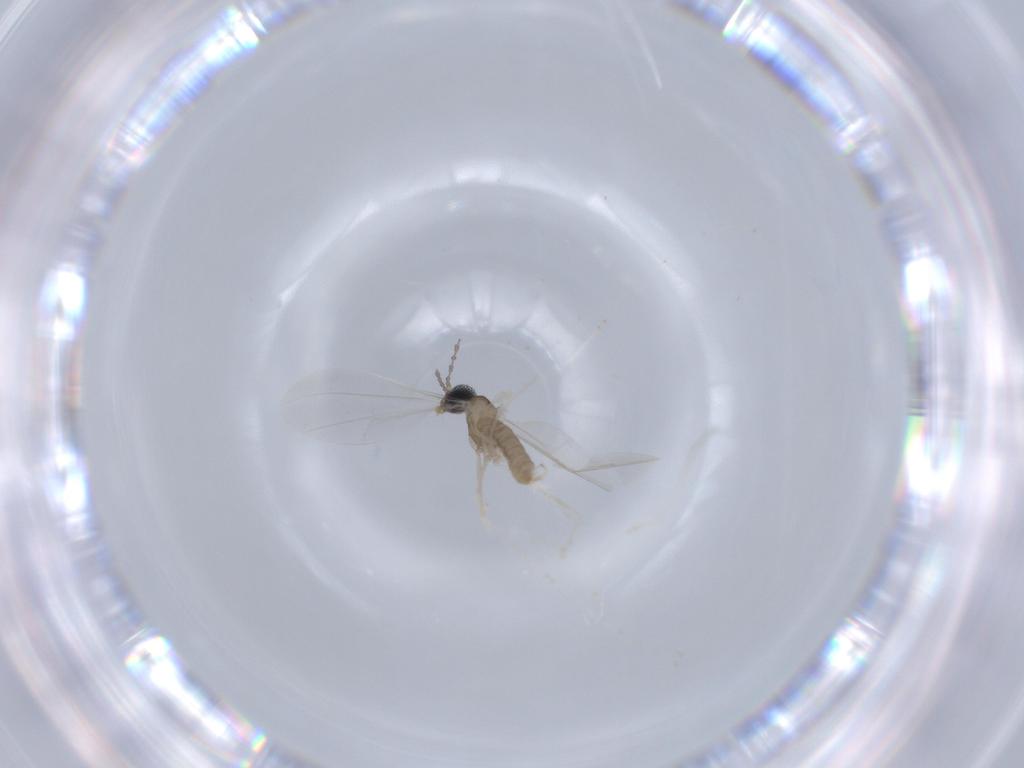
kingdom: Animalia
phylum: Arthropoda
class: Insecta
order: Diptera
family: Cecidomyiidae
